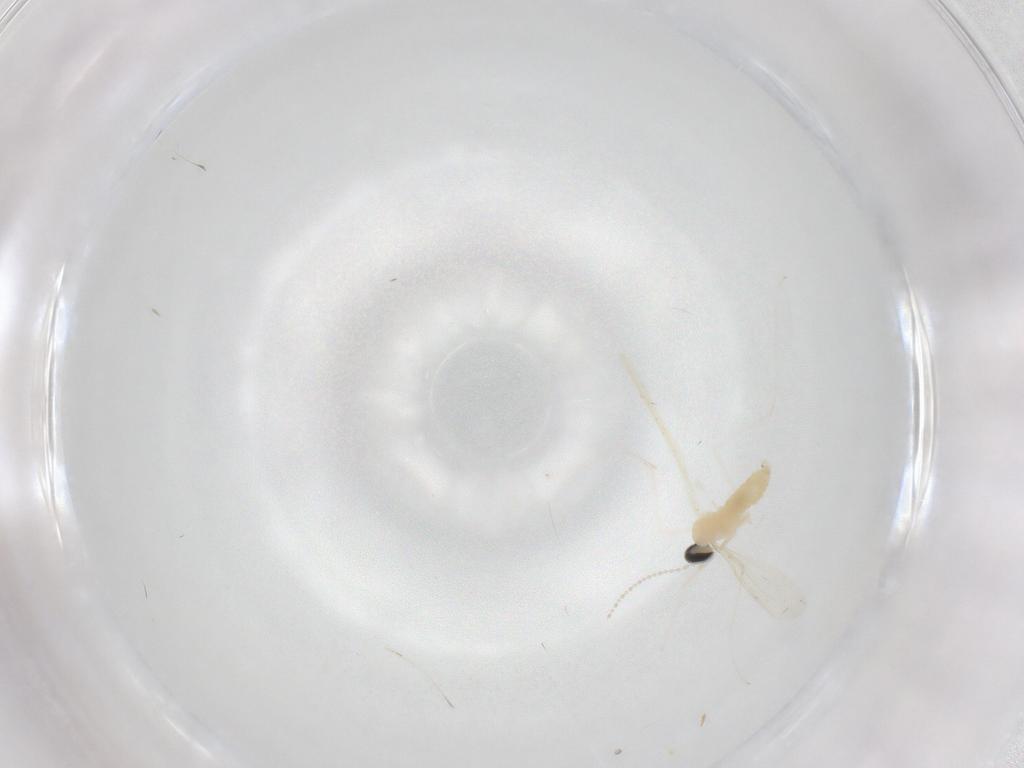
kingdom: Animalia
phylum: Arthropoda
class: Insecta
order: Diptera
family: Cecidomyiidae
